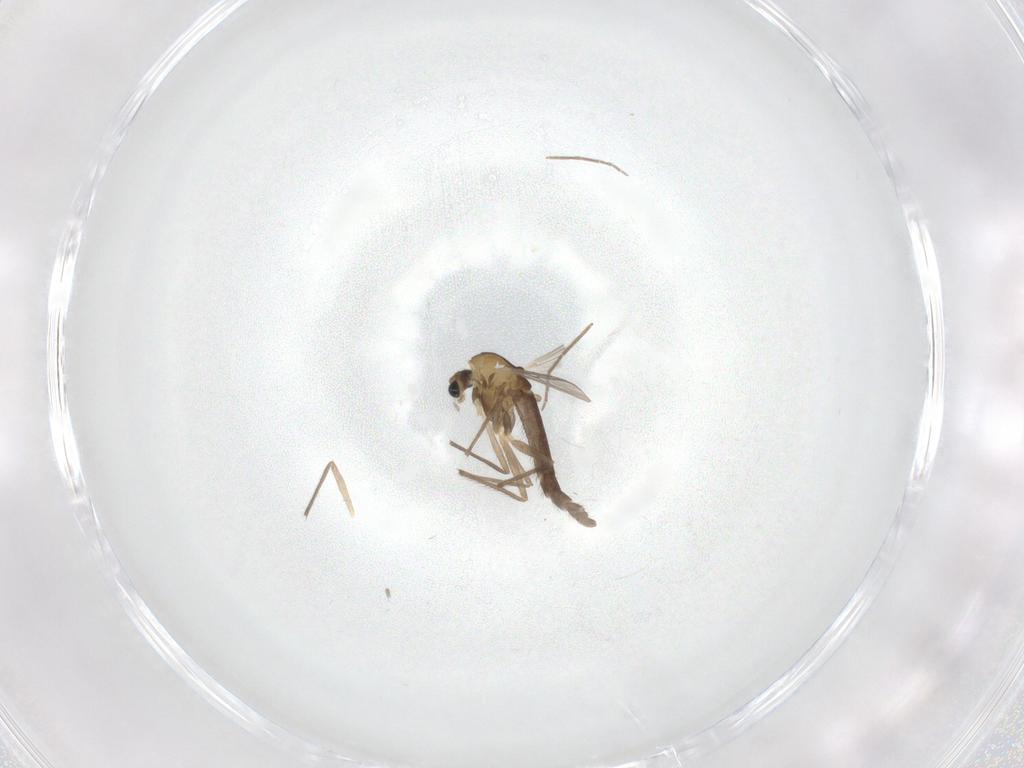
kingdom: Animalia
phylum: Arthropoda
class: Insecta
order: Diptera
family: Chironomidae
